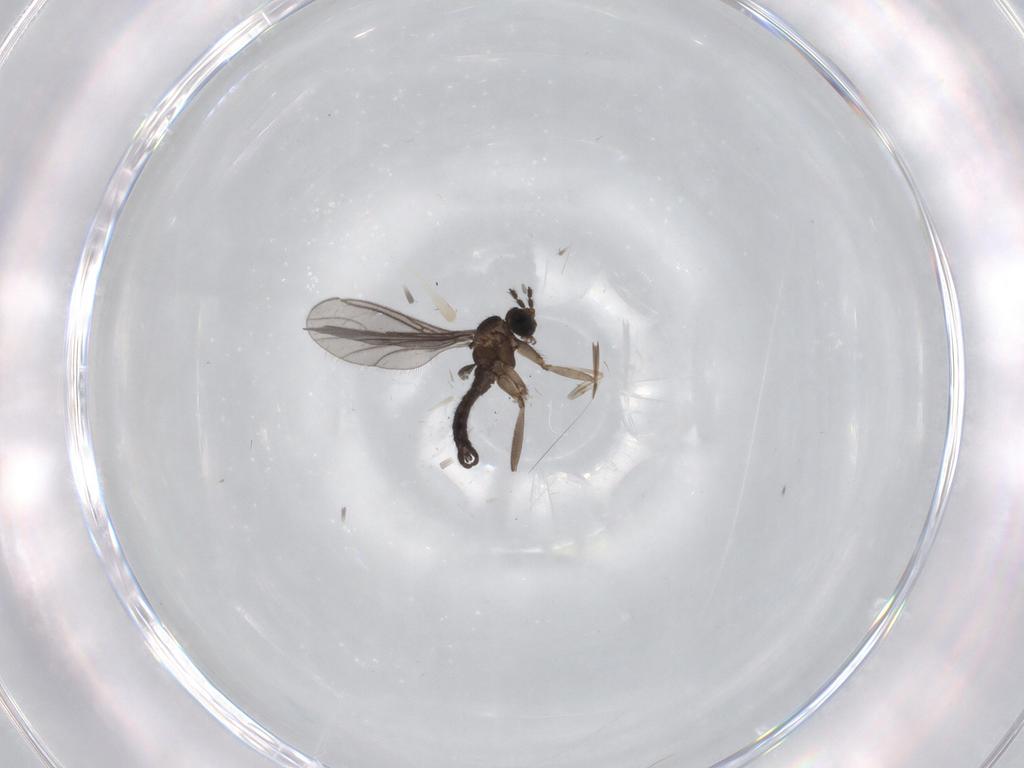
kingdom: Animalia
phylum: Arthropoda
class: Insecta
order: Diptera
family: Sciaridae
